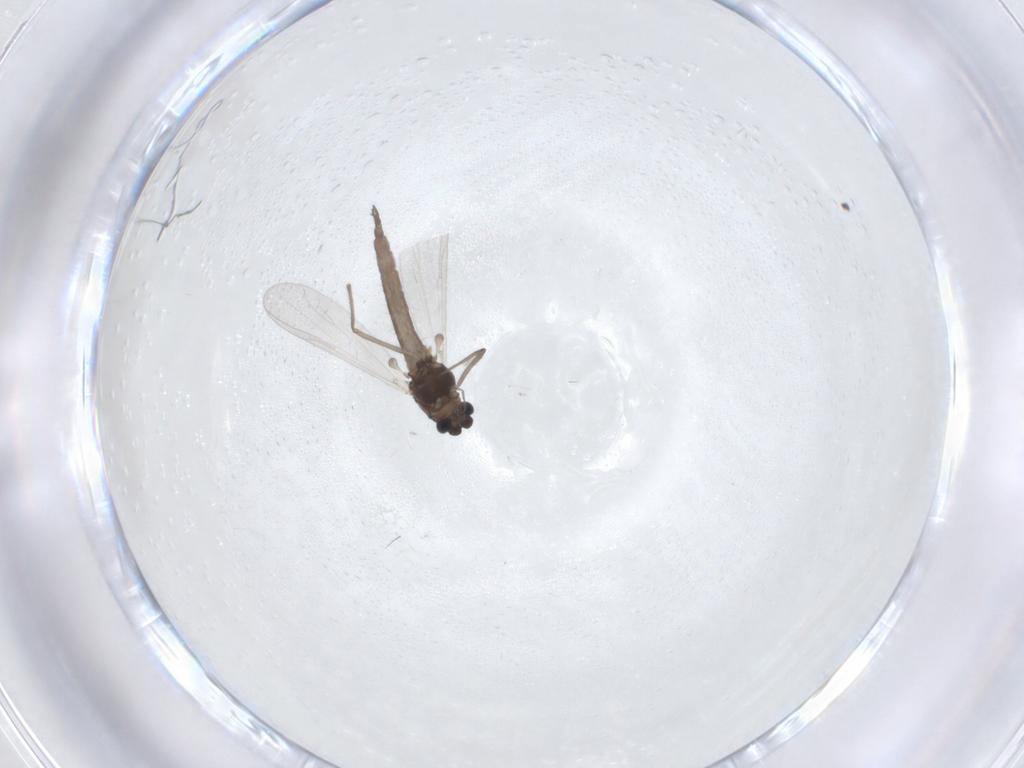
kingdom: Animalia
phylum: Arthropoda
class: Insecta
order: Diptera
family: Chironomidae
